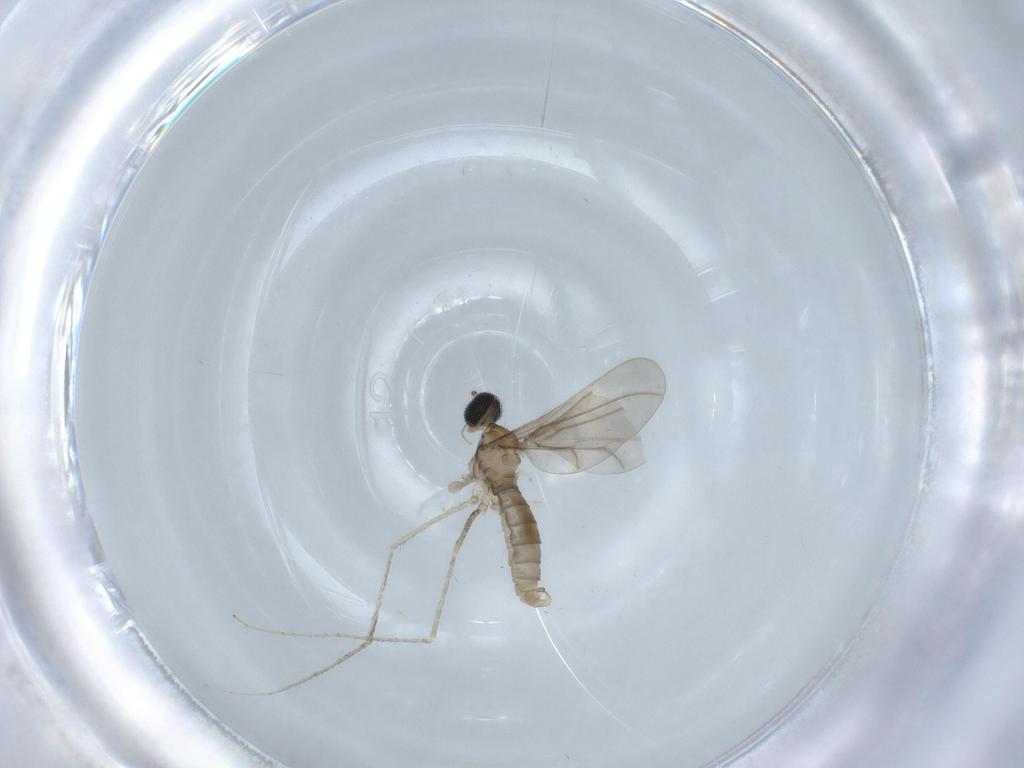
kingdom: Animalia
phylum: Arthropoda
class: Insecta
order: Diptera
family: Cecidomyiidae
